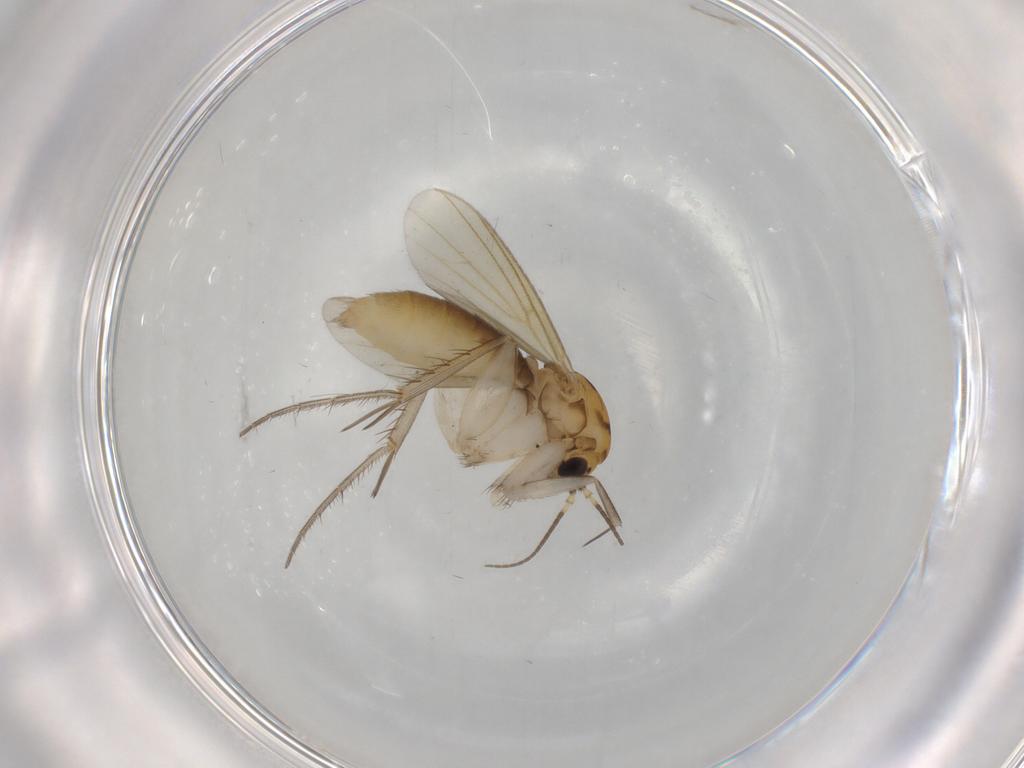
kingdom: Animalia
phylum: Arthropoda
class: Insecta
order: Diptera
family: Mycetophilidae
